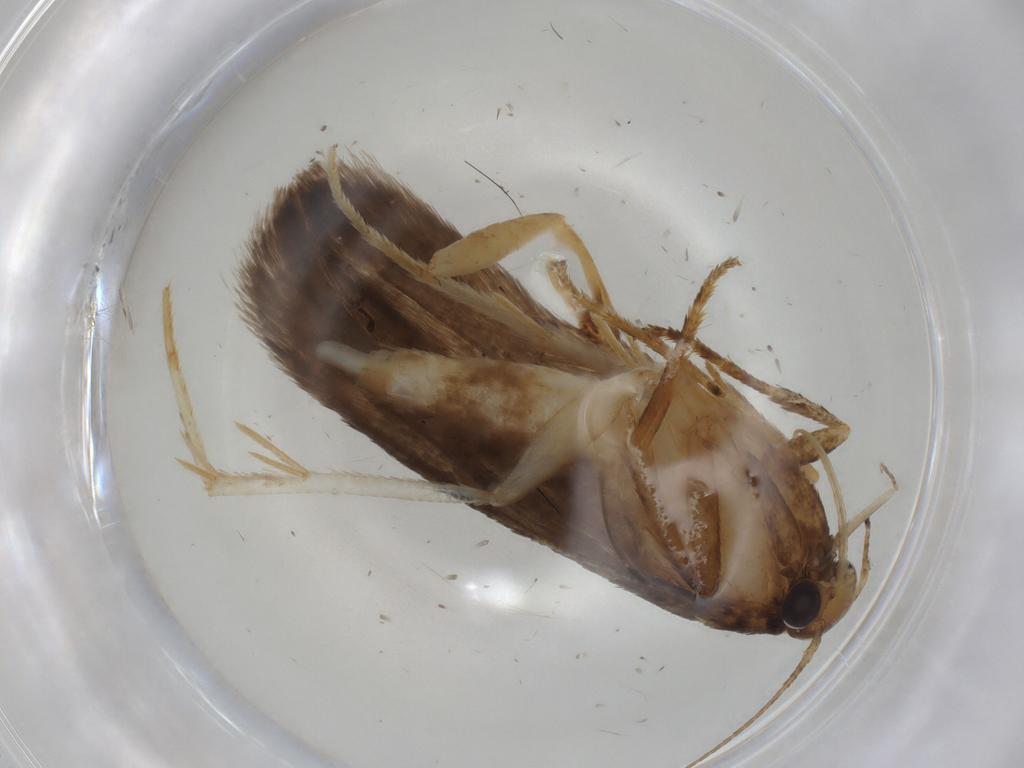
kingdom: Animalia
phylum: Arthropoda
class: Insecta
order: Lepidoptera
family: Gelechiidae
